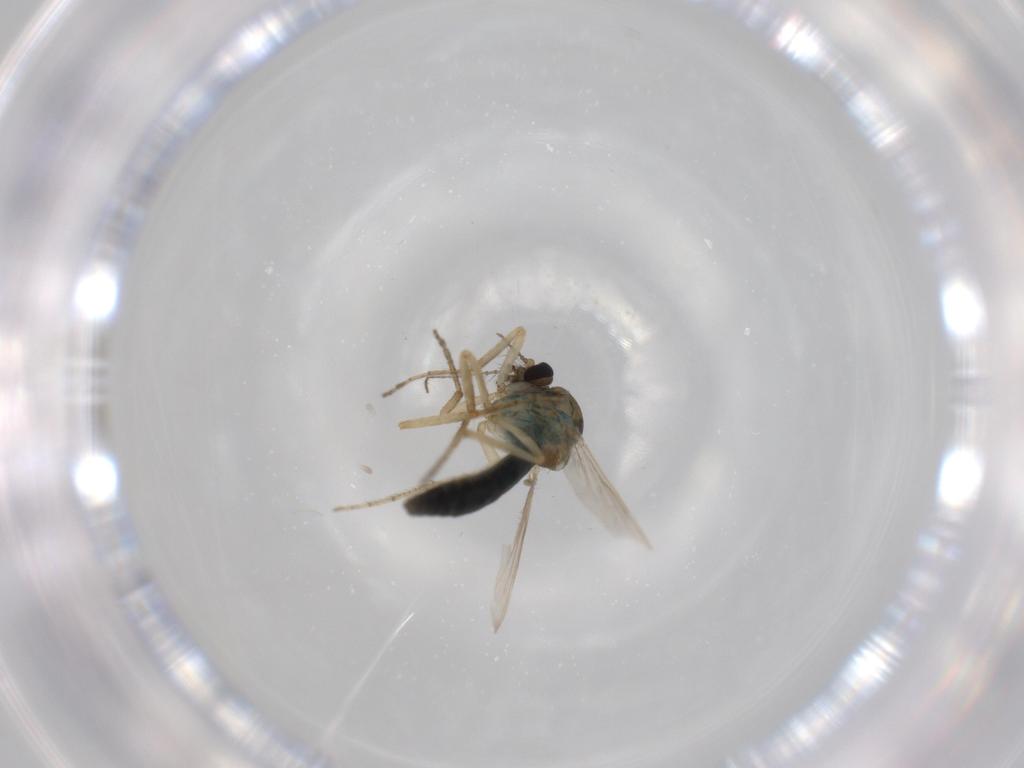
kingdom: Animalia
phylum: Arthropoda
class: Insecta
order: Diptera
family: Ceratopogonidae
